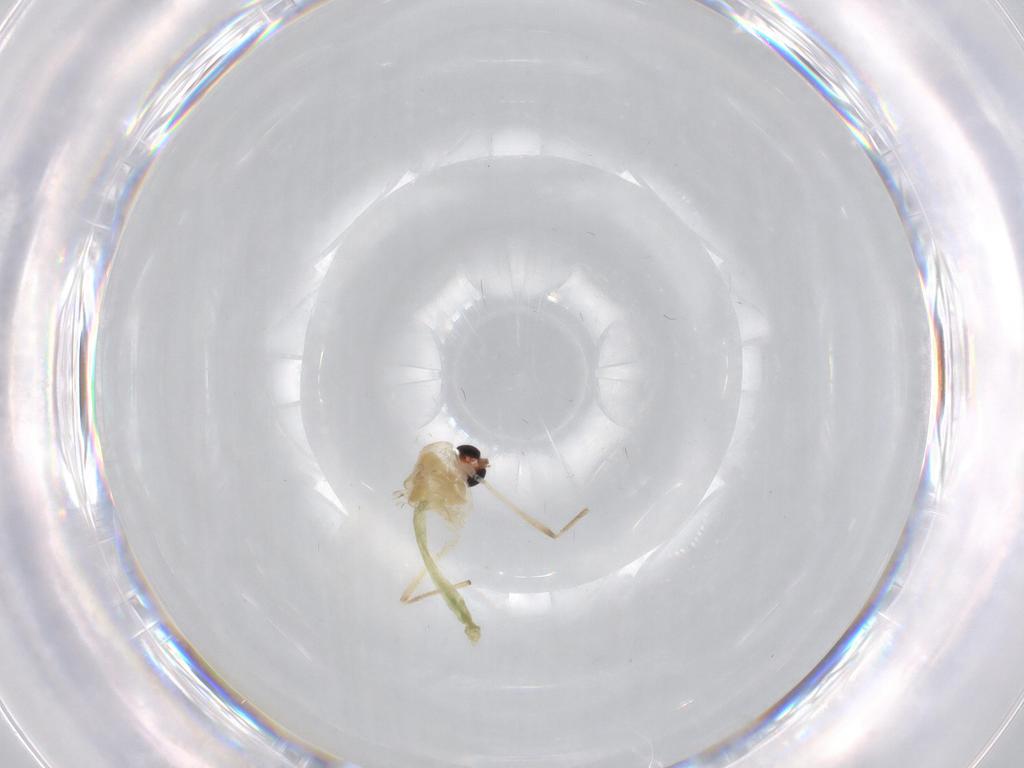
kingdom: Animalia
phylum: Arthropoda
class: Insecta
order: Diptera
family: Chironomidae
